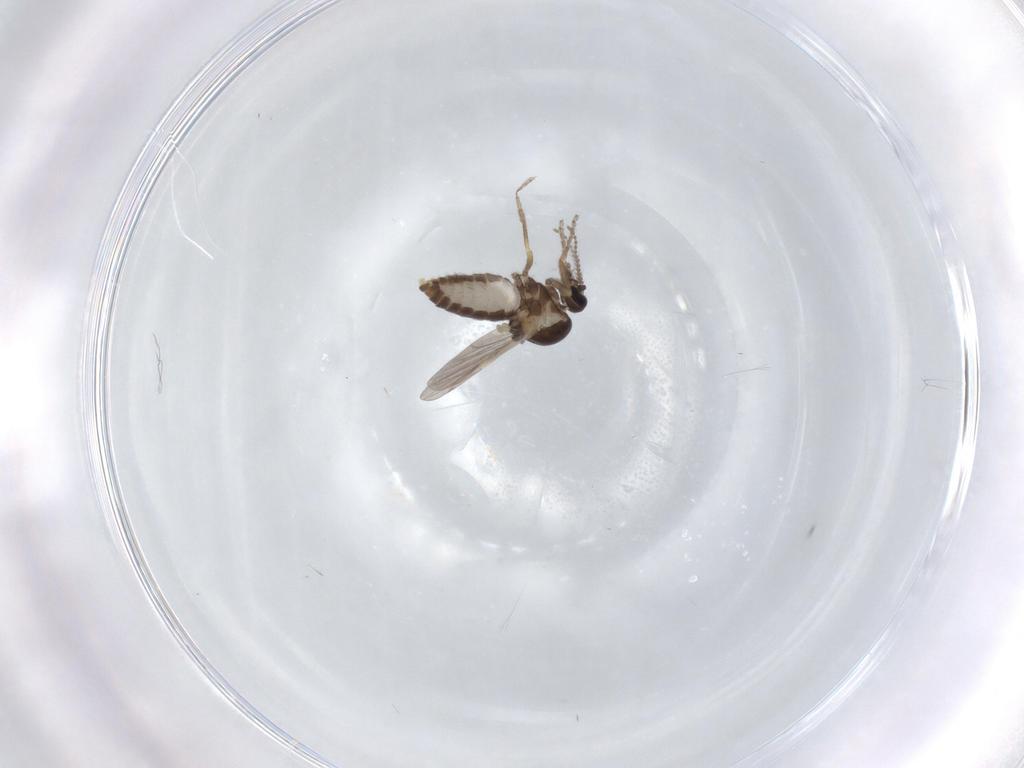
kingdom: Animalia
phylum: Arthropoda
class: Insecta
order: Diptera
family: Ceratopogonidae
